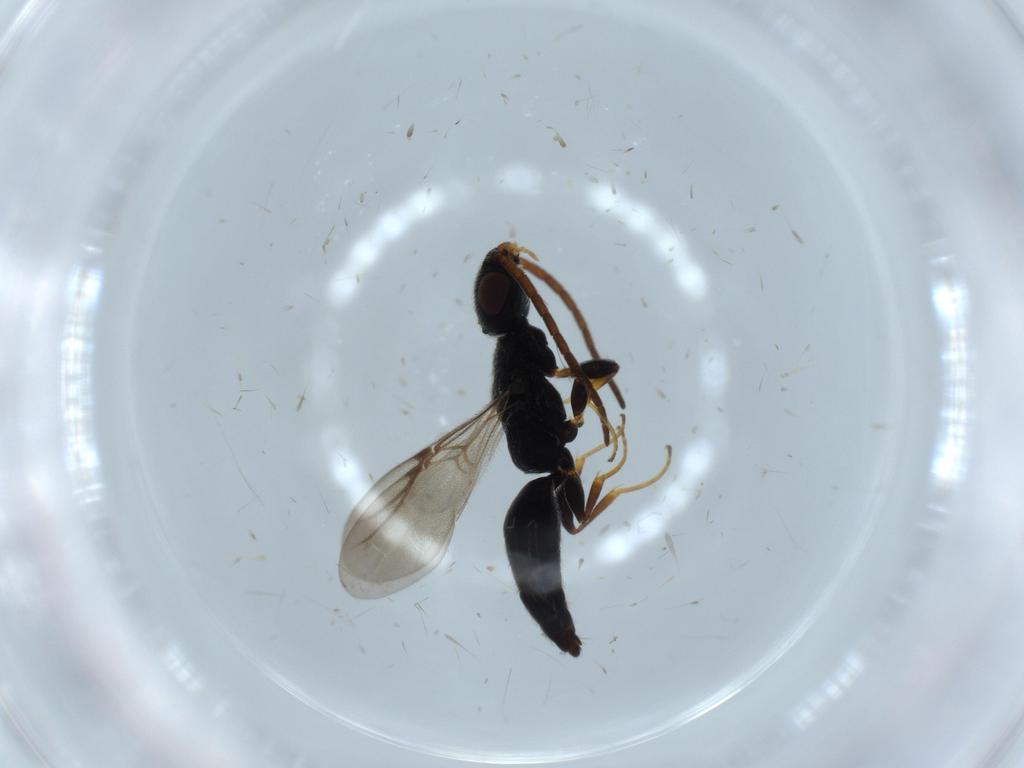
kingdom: Animalia
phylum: Arthropoda
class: Insecta
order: Hymenoptera
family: Bethylidae
